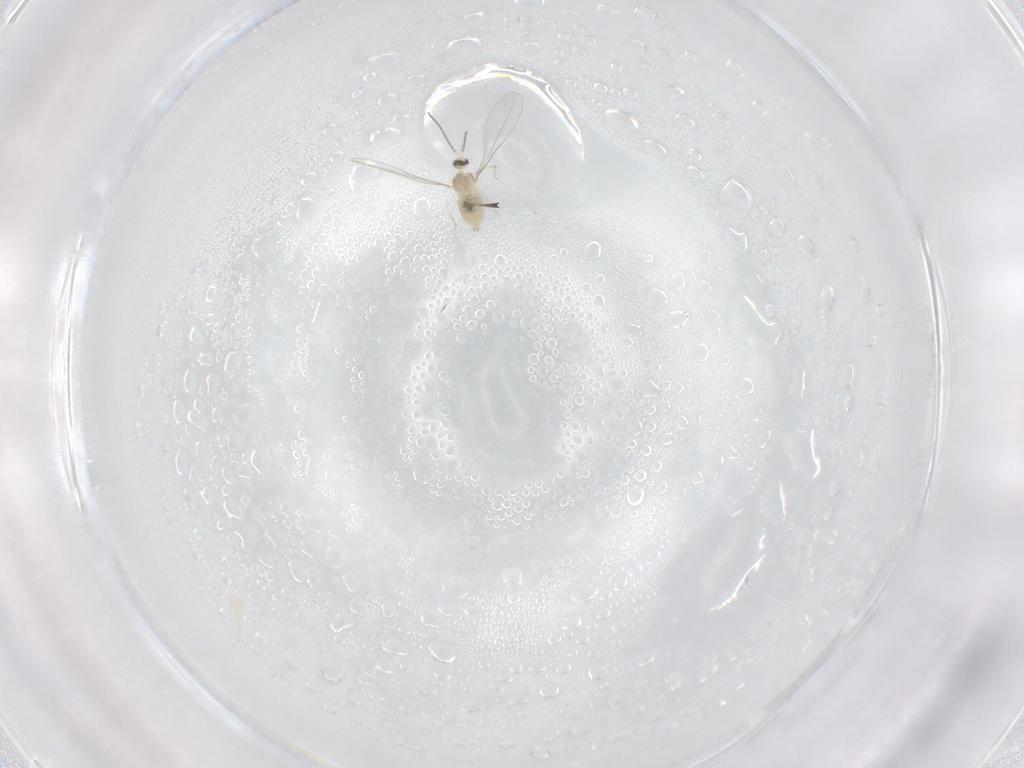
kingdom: Animalia
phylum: Arthropoda
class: Insecta
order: Diptera
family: Cecidomyiidae
